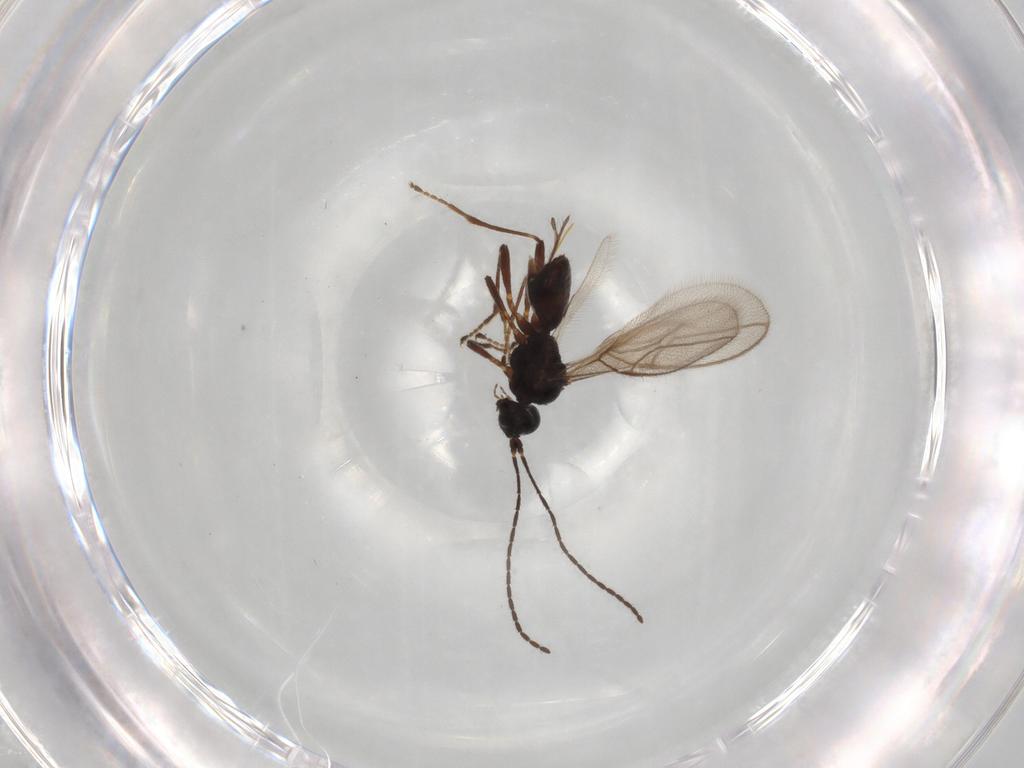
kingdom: Animalia
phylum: Arthropoda
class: Insecta
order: Hymenoptera
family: Braconidae
